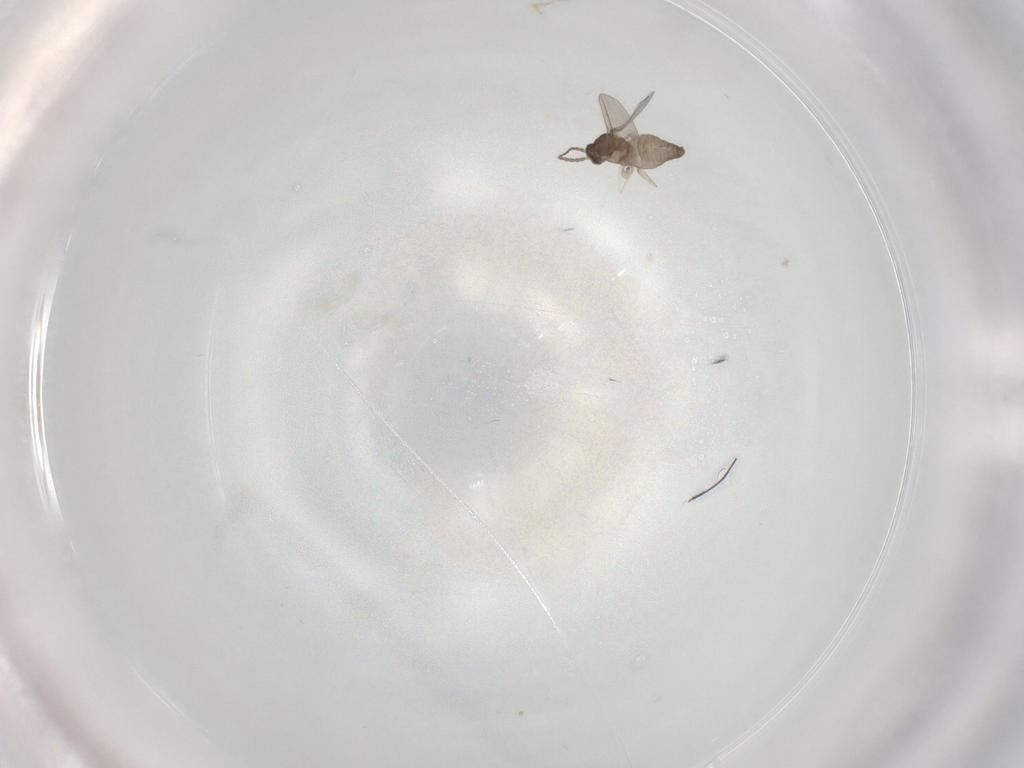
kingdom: Animalia
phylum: Arthropoda
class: Insecta
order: Diptera
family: Cecidomyiidae
